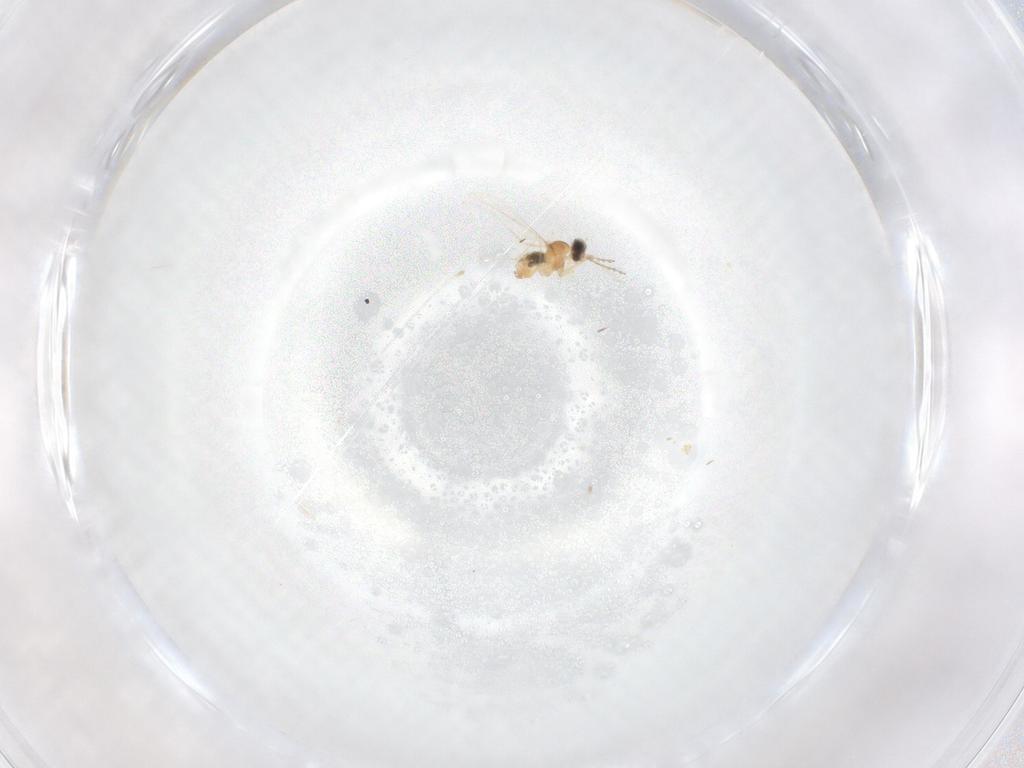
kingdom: Animalia
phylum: Arthropoda
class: Insecta
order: Diptera
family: Cecidomyiidae
